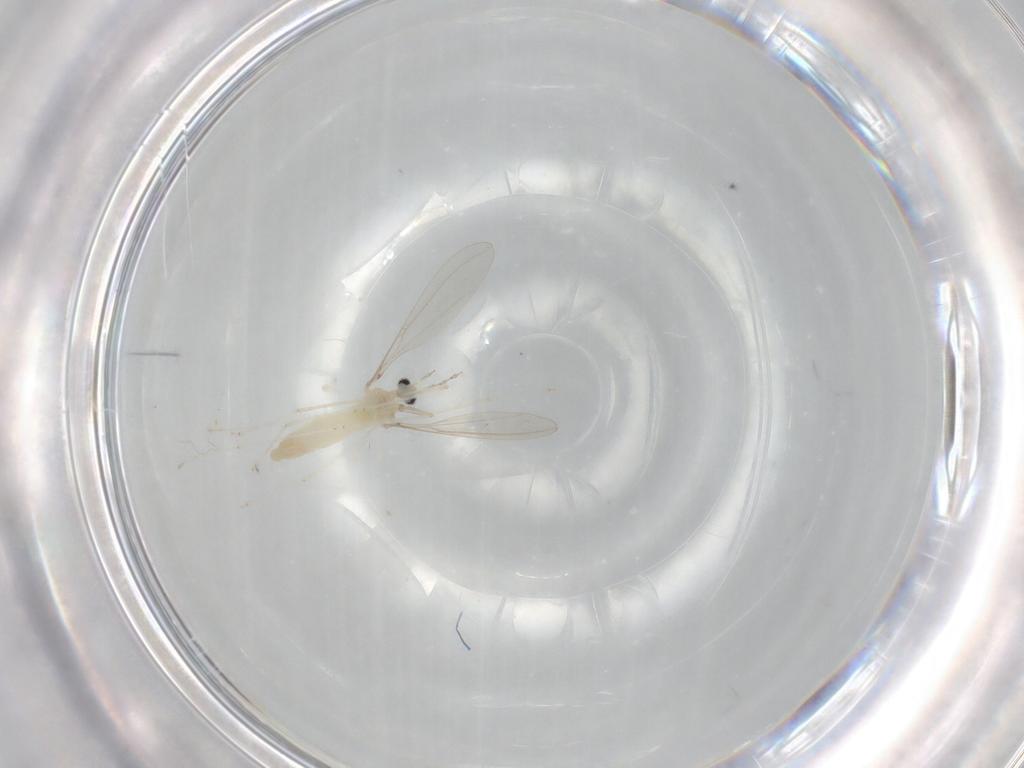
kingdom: Animalia
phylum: Arthropoda
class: Insecta
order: Diptera
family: Cecidomyiidae
